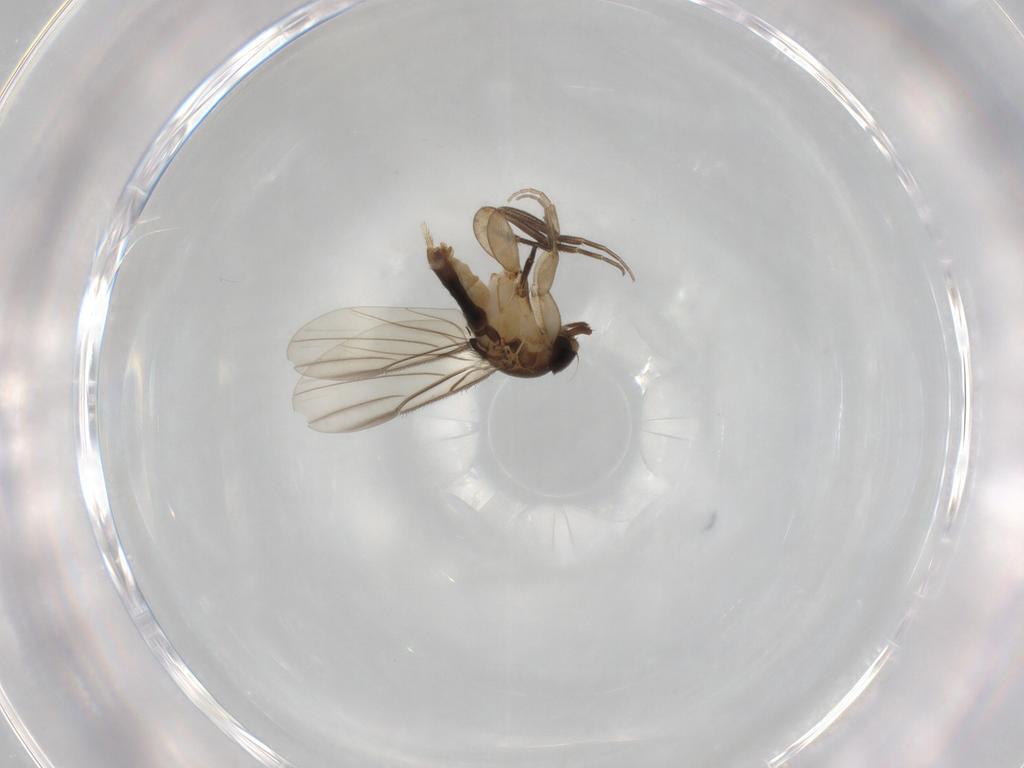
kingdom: Animalia
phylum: Arthropoda
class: Insecta
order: Diptera
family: Phoridae
